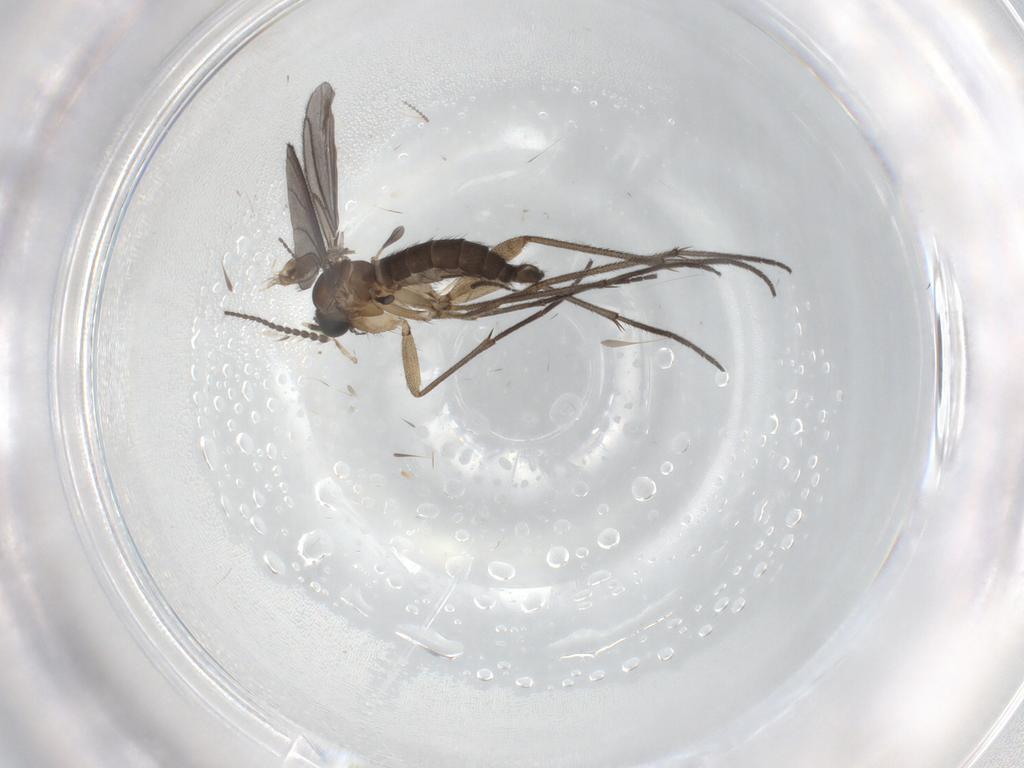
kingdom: Animalia
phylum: Arthropoda
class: Insecta
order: Diptera
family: Limoniidae
